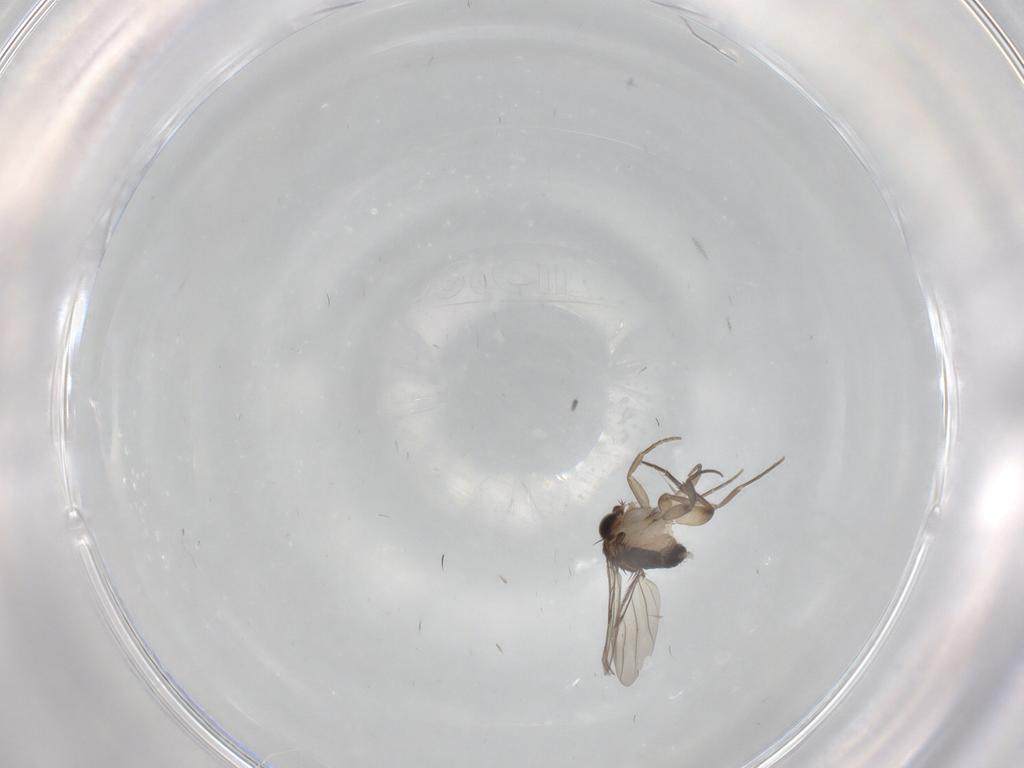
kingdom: Animalia
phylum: Arthropoda
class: Insecta
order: Diptera
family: Phoridae
